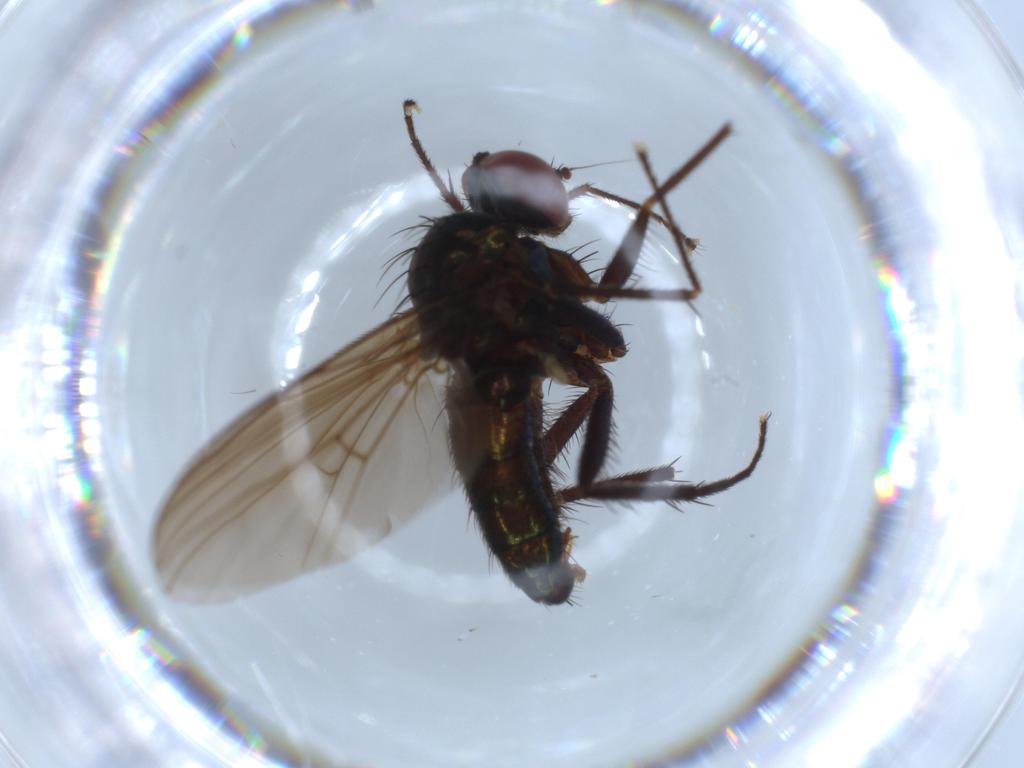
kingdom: Animalia
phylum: Arthropoda
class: Insecta
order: Diptera
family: Dolichopodidae
